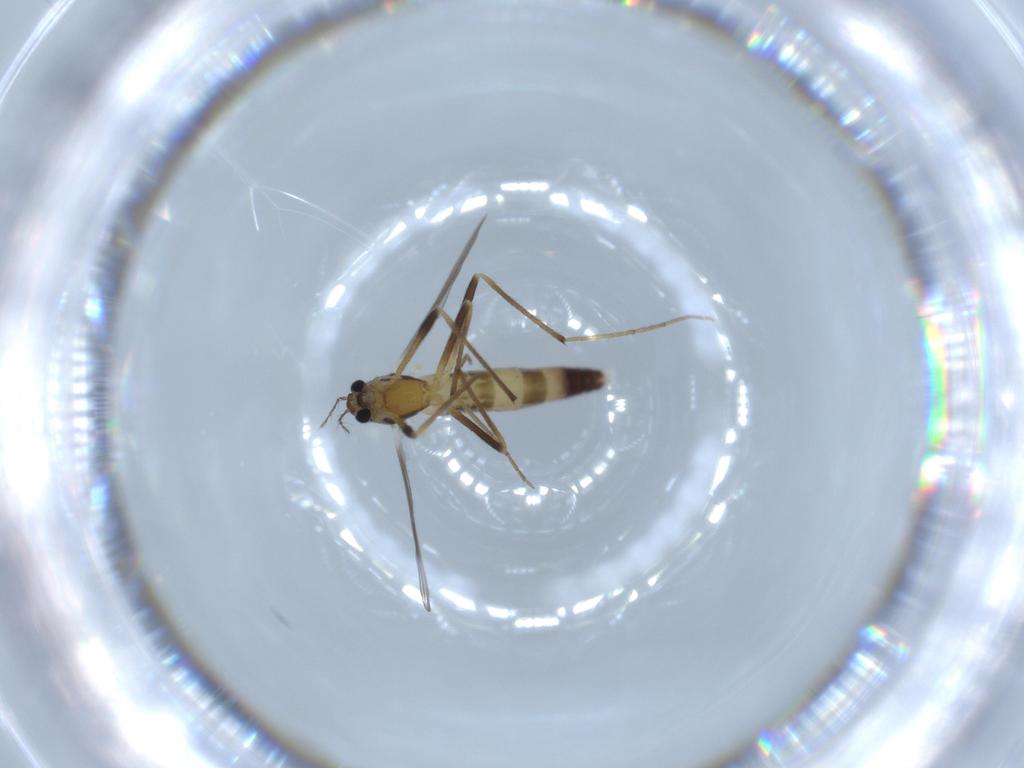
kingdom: Animalia
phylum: Arthropoda
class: Insecta
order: Diptera
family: Chironomidae
